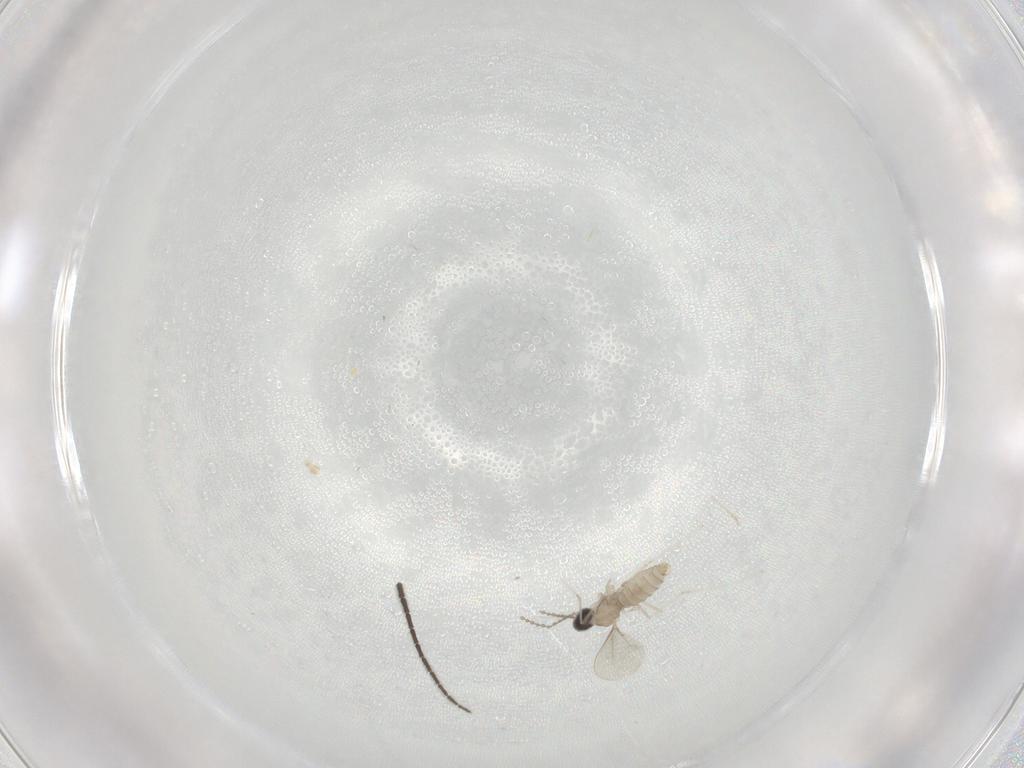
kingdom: Animalia
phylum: Arthropoda
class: Insecta
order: Diptera
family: Cecidomyiidae
